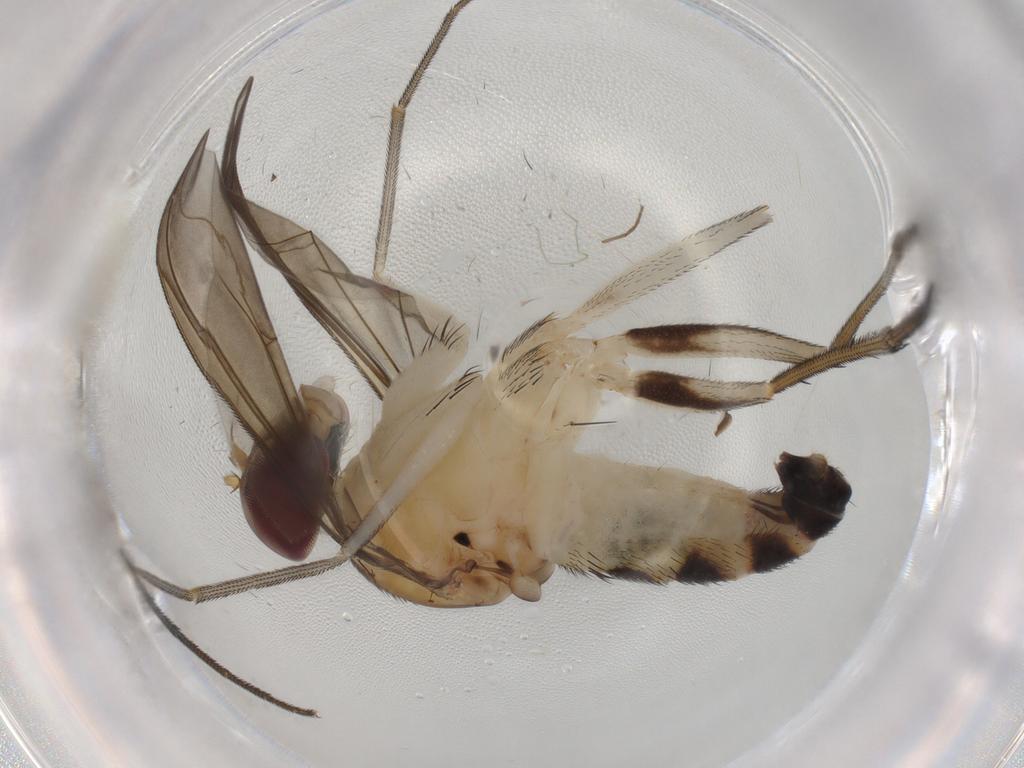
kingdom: Animalia
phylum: Arthropoda
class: Insecta
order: Diptera
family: Dolichopodidae
